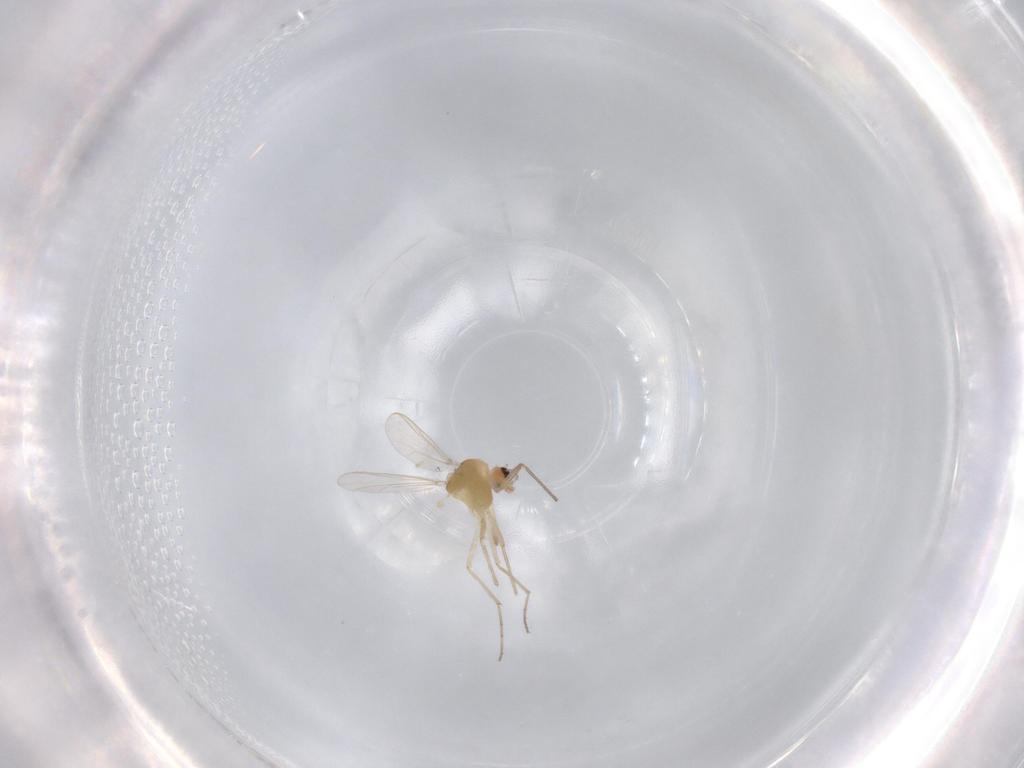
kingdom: Animalia
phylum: Arthropoda
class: Insecta
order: Diptera
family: Chironomidae
